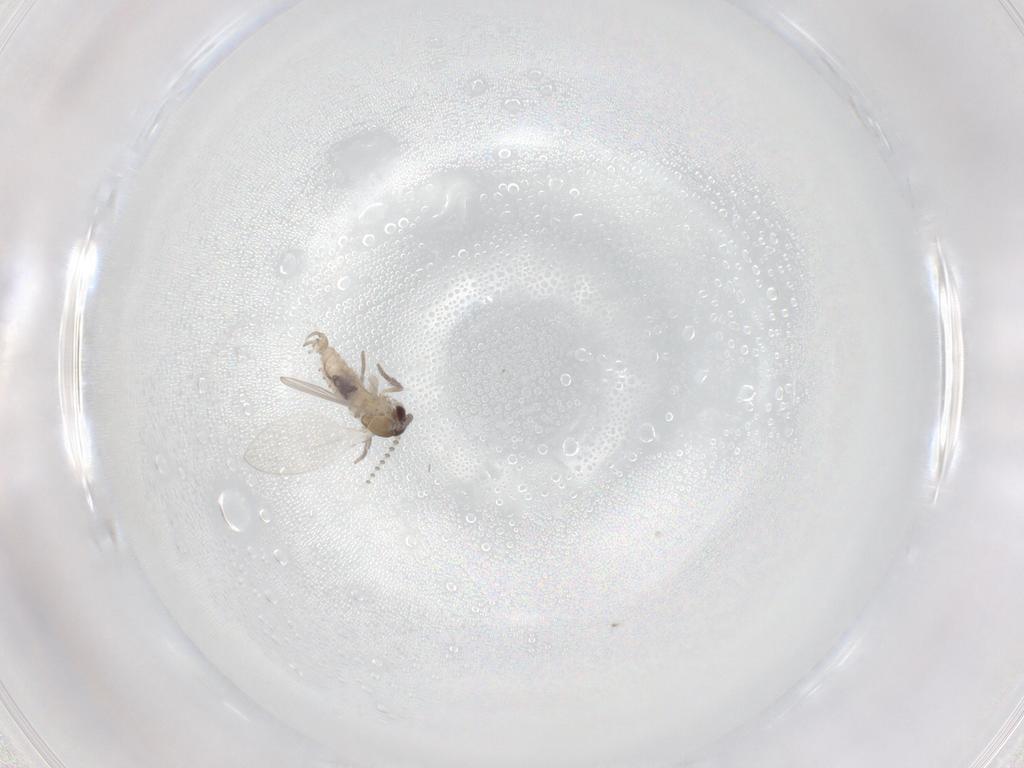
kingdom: Animalia
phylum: Arthropoda
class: Insecta
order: Diptera
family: Psychodidae
